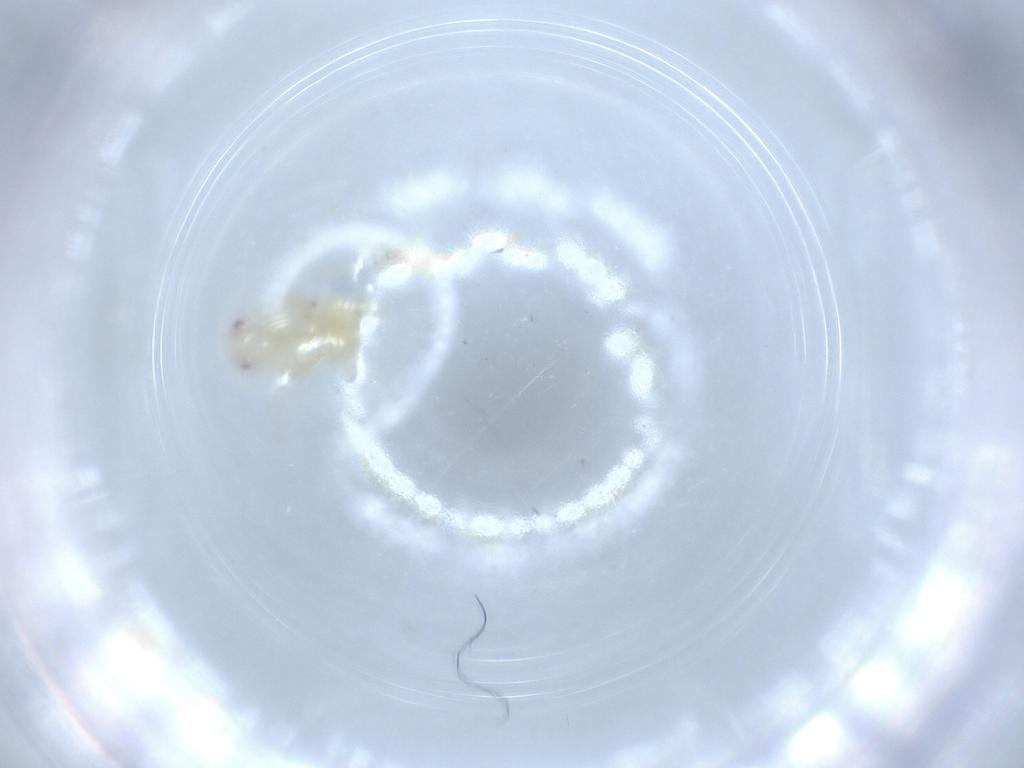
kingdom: Animalia
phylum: Arthropoda
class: Insecta
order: Hemiptera
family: Flatidae
